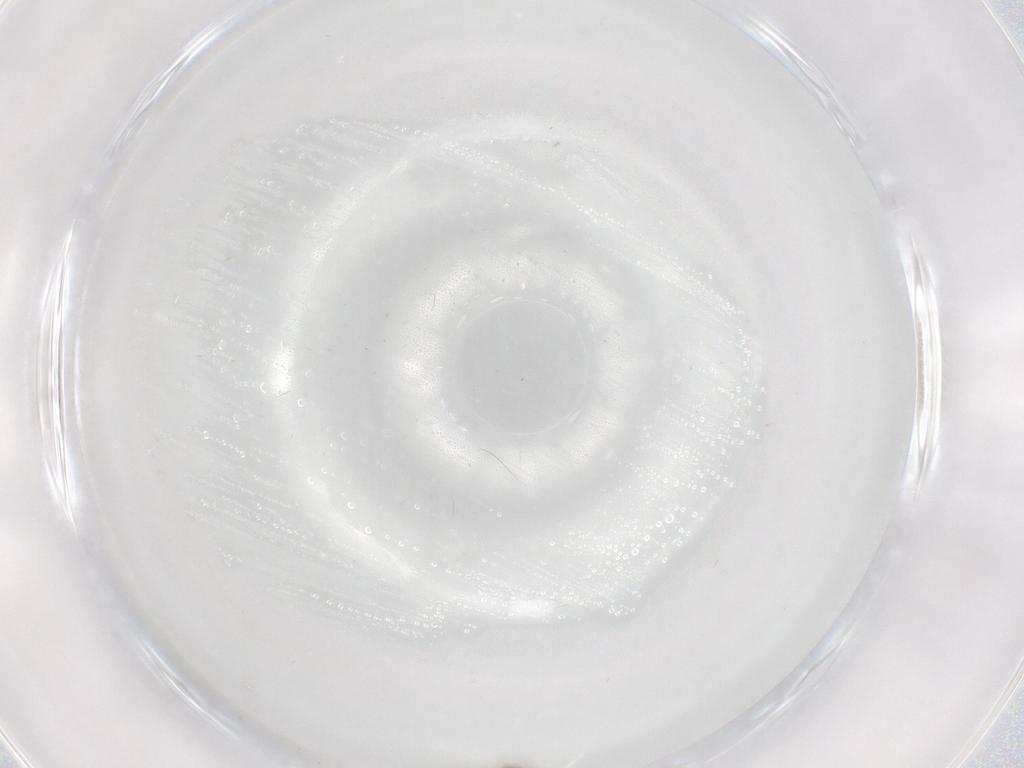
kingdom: Animalia
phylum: Arthropoda
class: Insecta
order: Diptera
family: Cecidomyiidae
